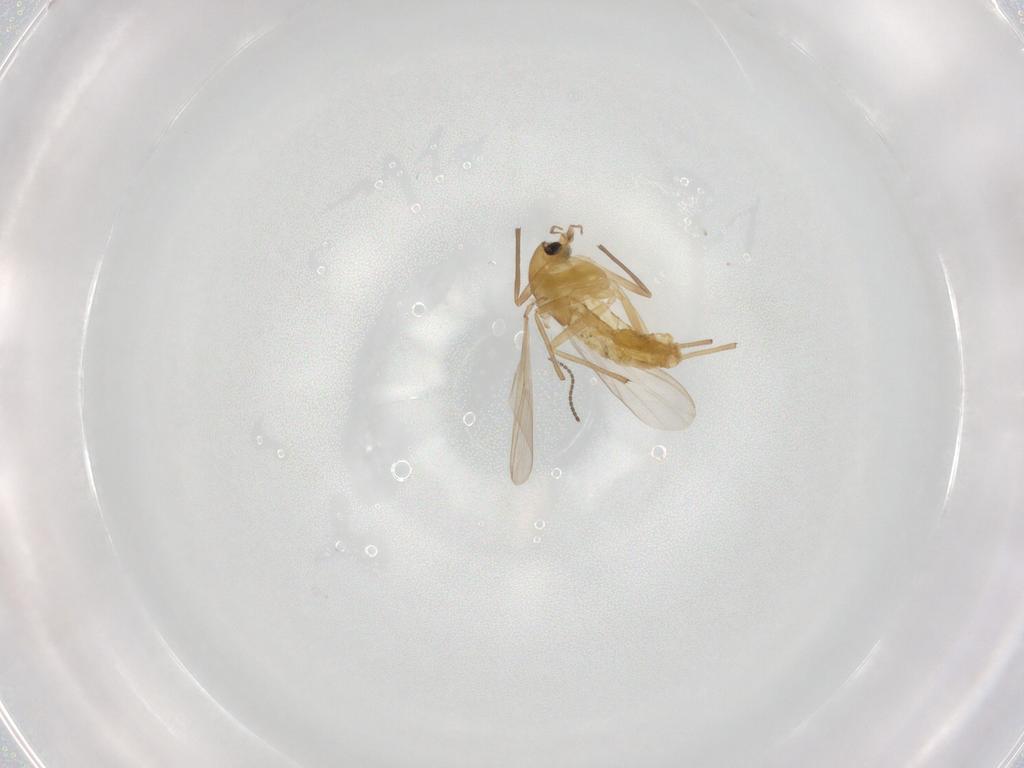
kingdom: Animalia
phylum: Arthropoda
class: Insecta
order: Diptera
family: Chironomidae
